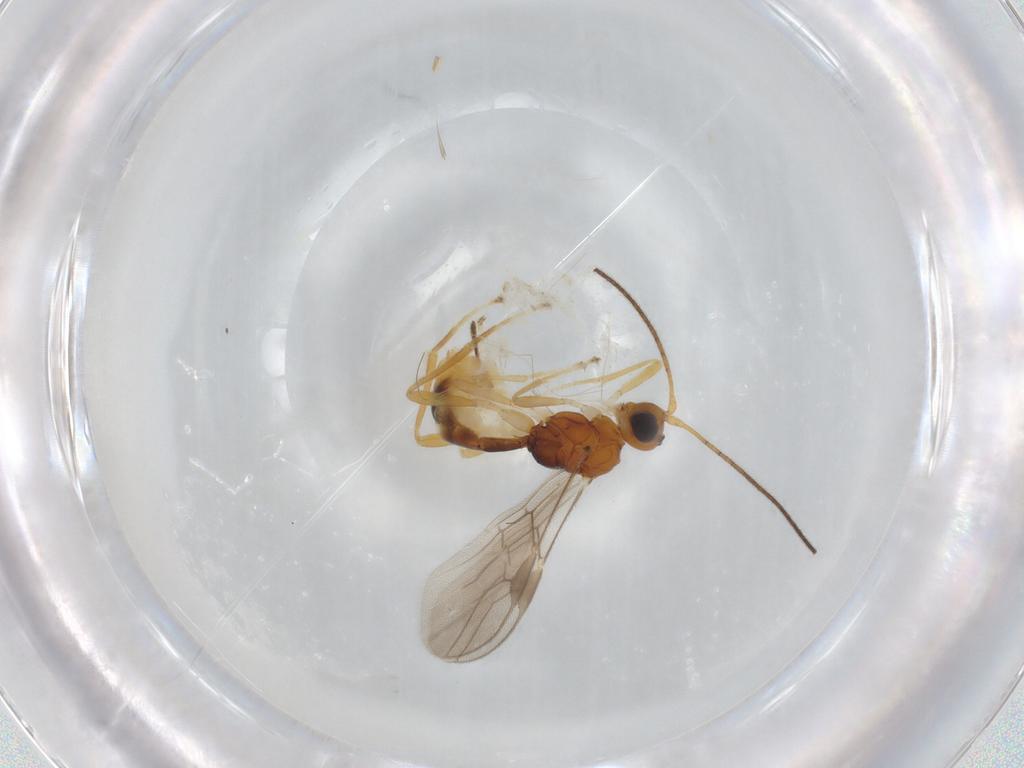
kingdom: Animalia
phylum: Arthropoda
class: Insecta
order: Hymenoptera
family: Braconidae
